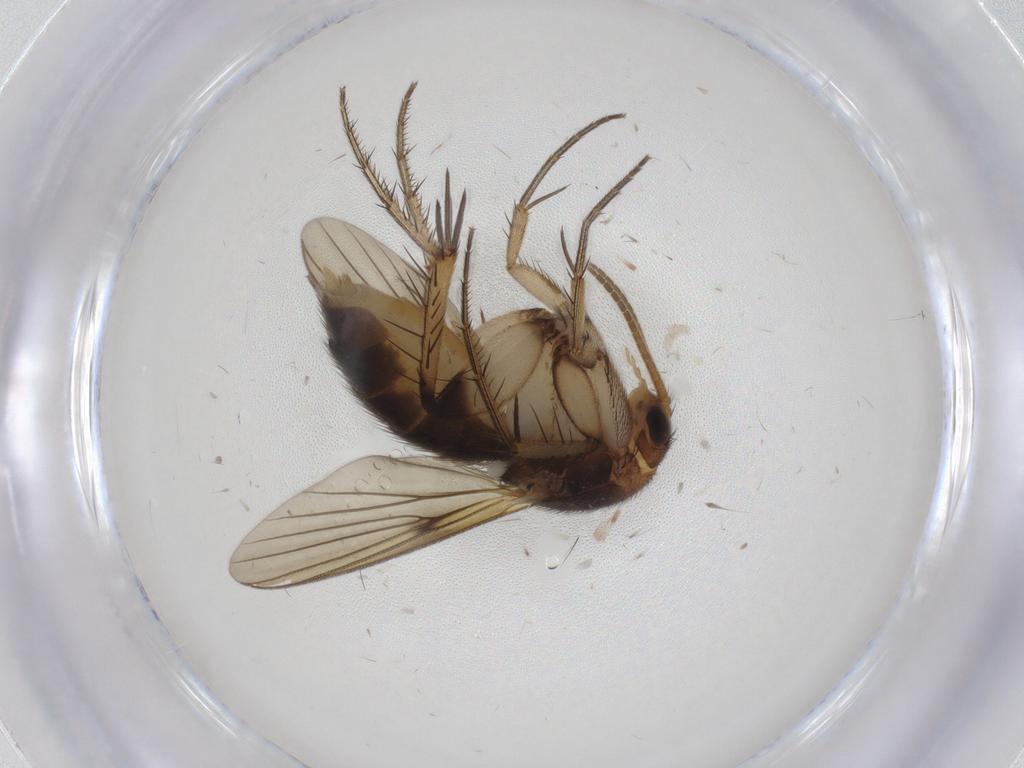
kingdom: Animalia
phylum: Arthropoda
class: Insecta
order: Diptera
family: Mycetophilidae
